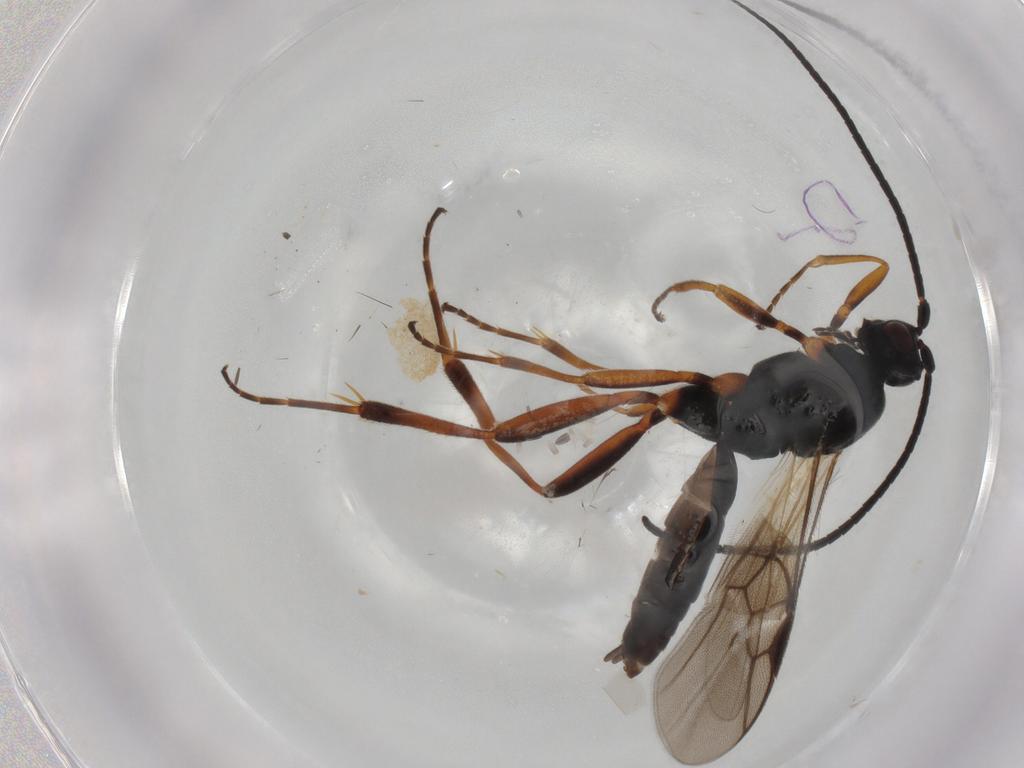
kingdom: Animalia
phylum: Arthropoda
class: Insecta
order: Hymenoptera
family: Braconidae
